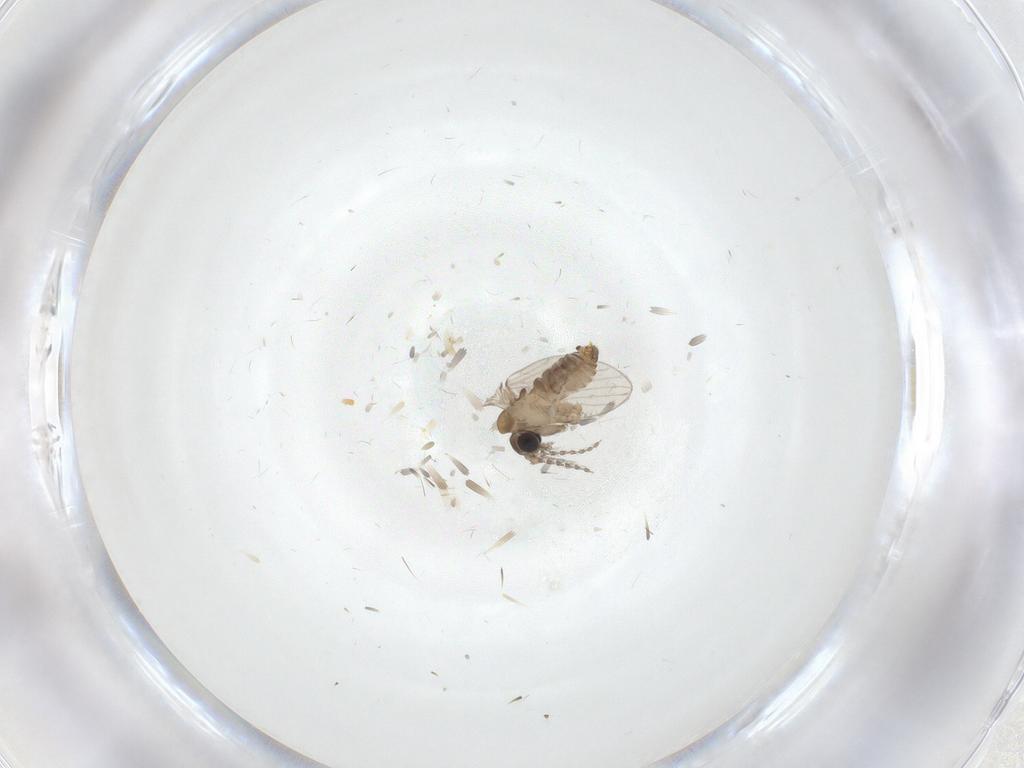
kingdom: Animalia
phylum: Arthropoda
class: Insecta
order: Diptera
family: Psychodidae
